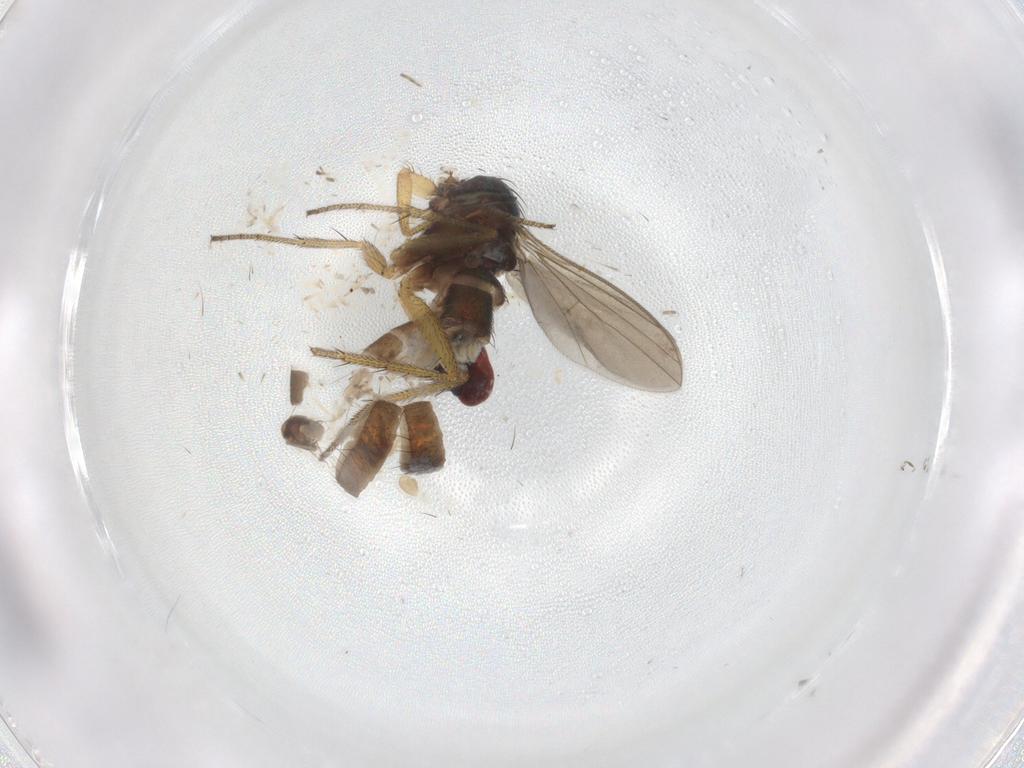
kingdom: Animalia
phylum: Arthropoda
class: Insecta
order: Diptera
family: Dolichopodidae
